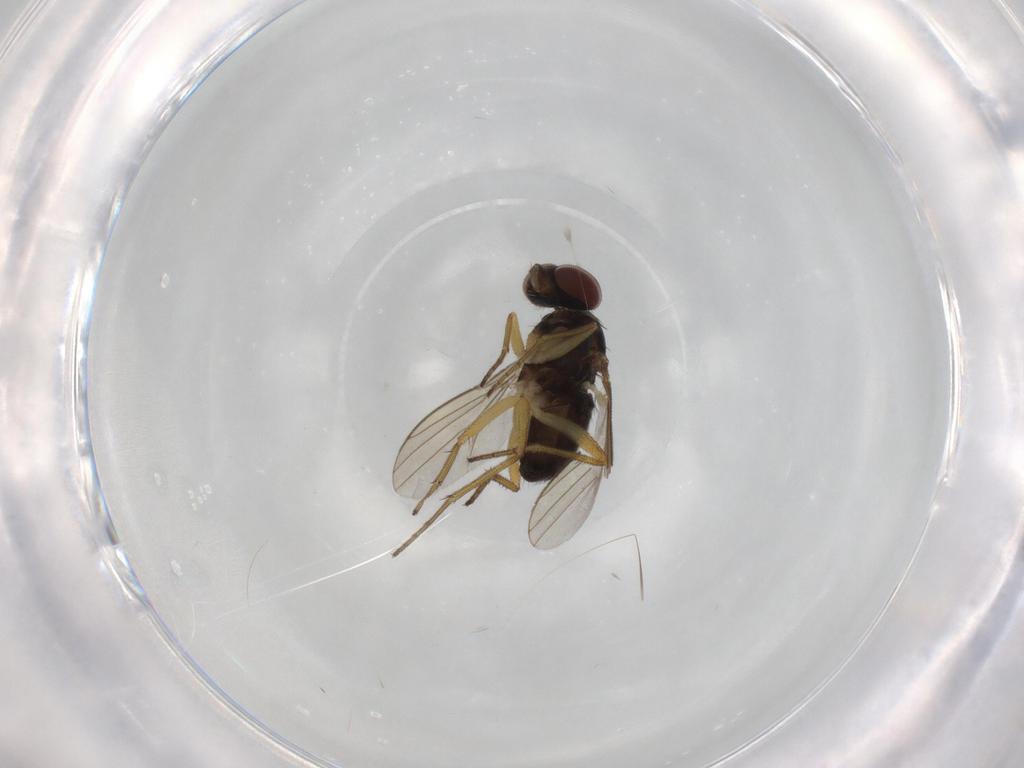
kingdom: Animalia
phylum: Arthropoda
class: Insecta
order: Diptera
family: Dolichopodidae
